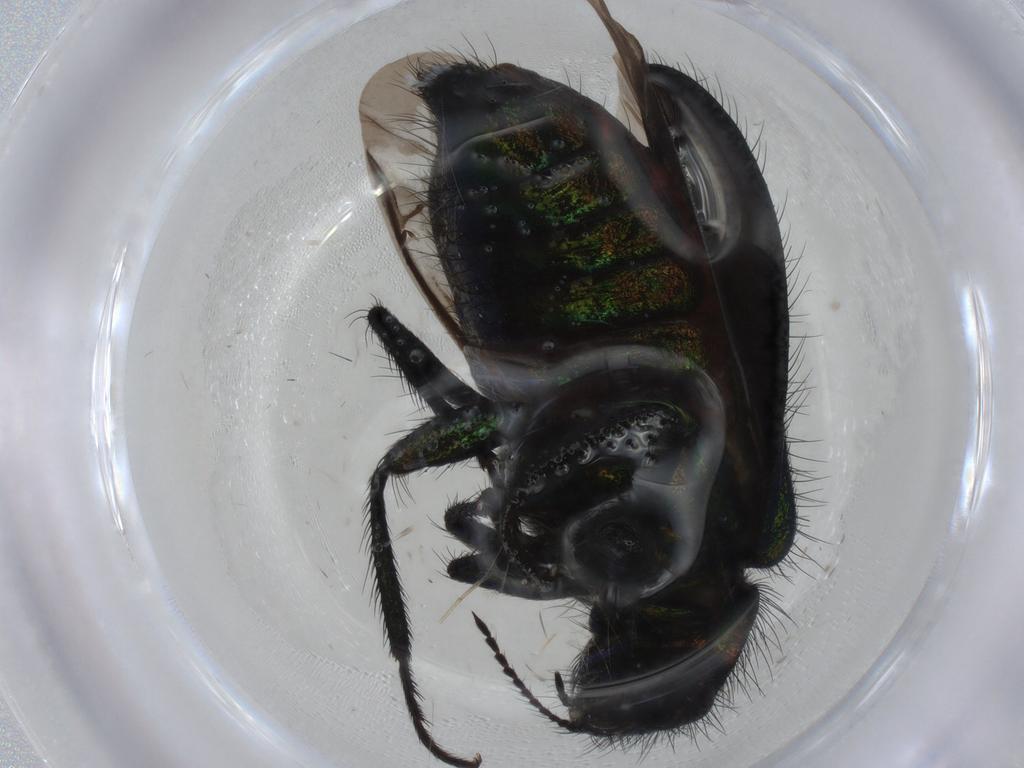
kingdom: Animalia
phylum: Arthropoda
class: Insecta
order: Coleoptera
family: Melyridae
